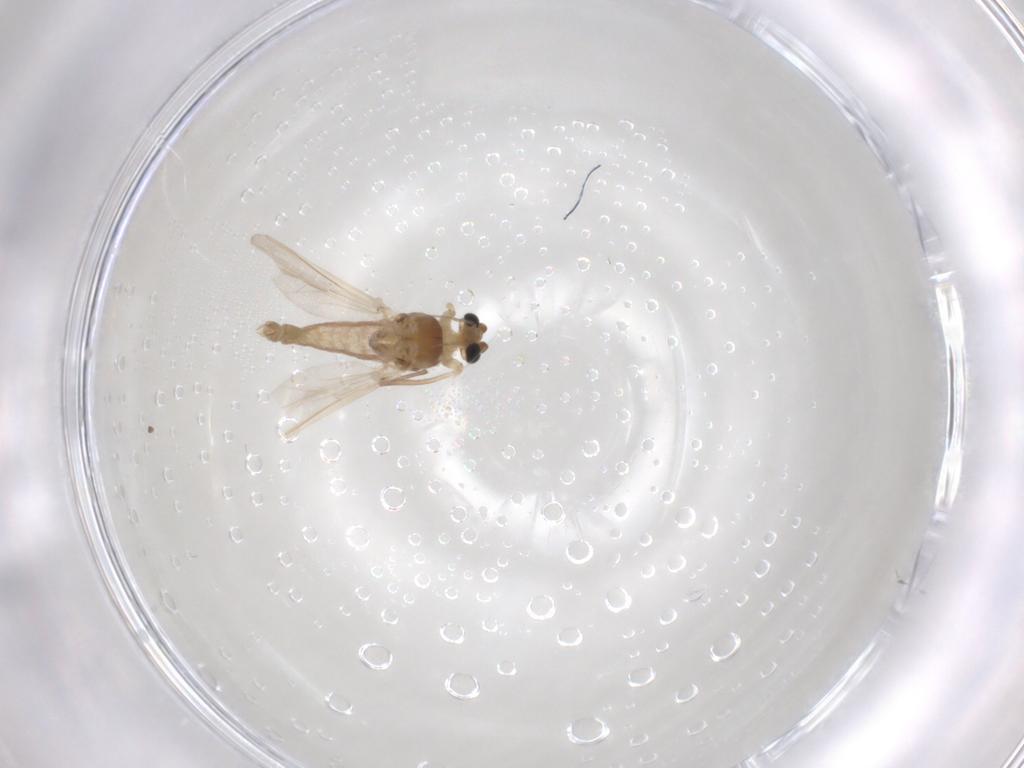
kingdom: Animalia
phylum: Arthropoda
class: Insecta
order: Diptera
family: Chironomidae
